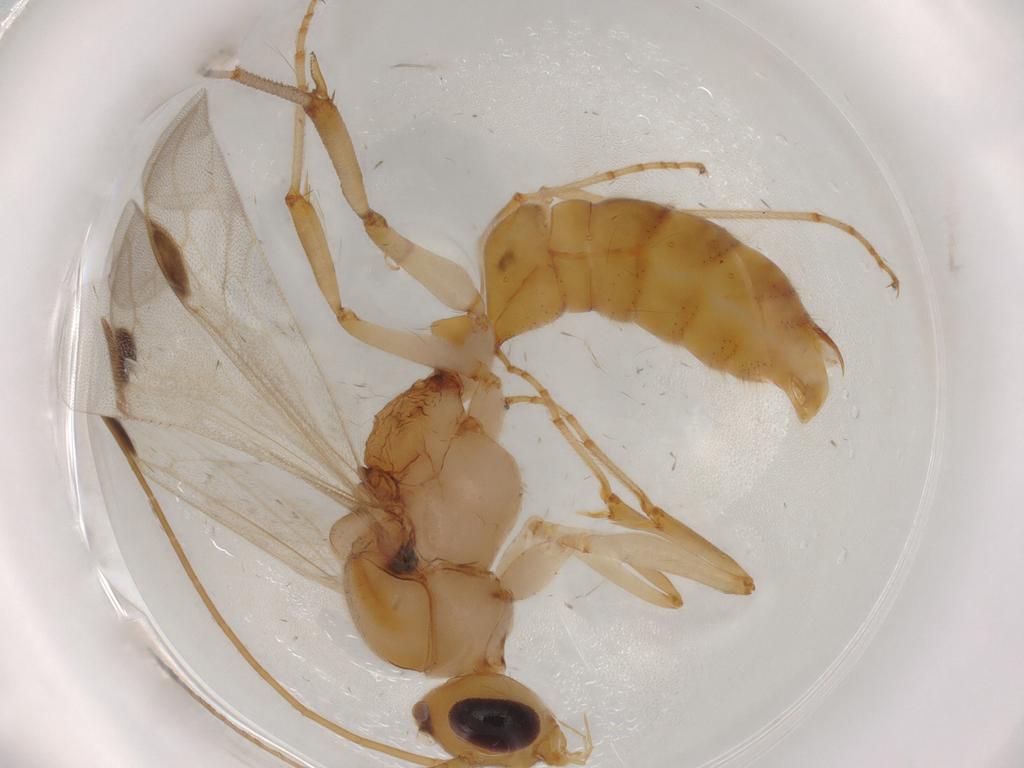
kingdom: Animalia
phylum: Arthropoda
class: Insecta
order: Hymenoptera
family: Formicidae
